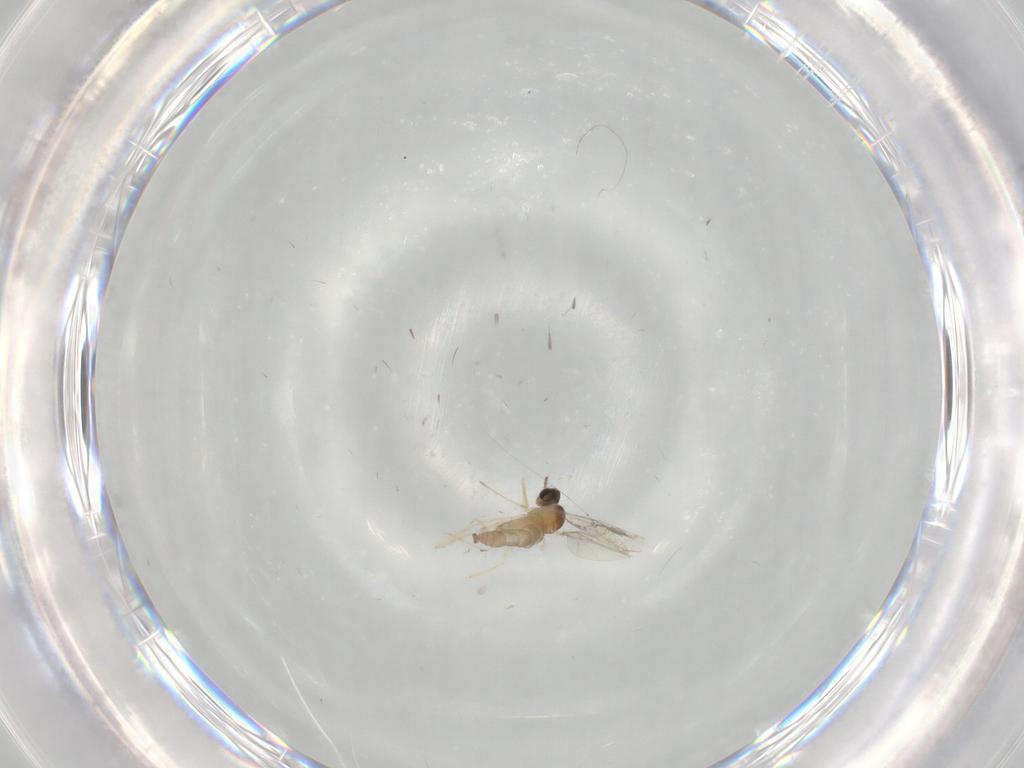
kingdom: Animalia
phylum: Arthropoda
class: Insecta
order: Diptera
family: Cecidomyiidae
